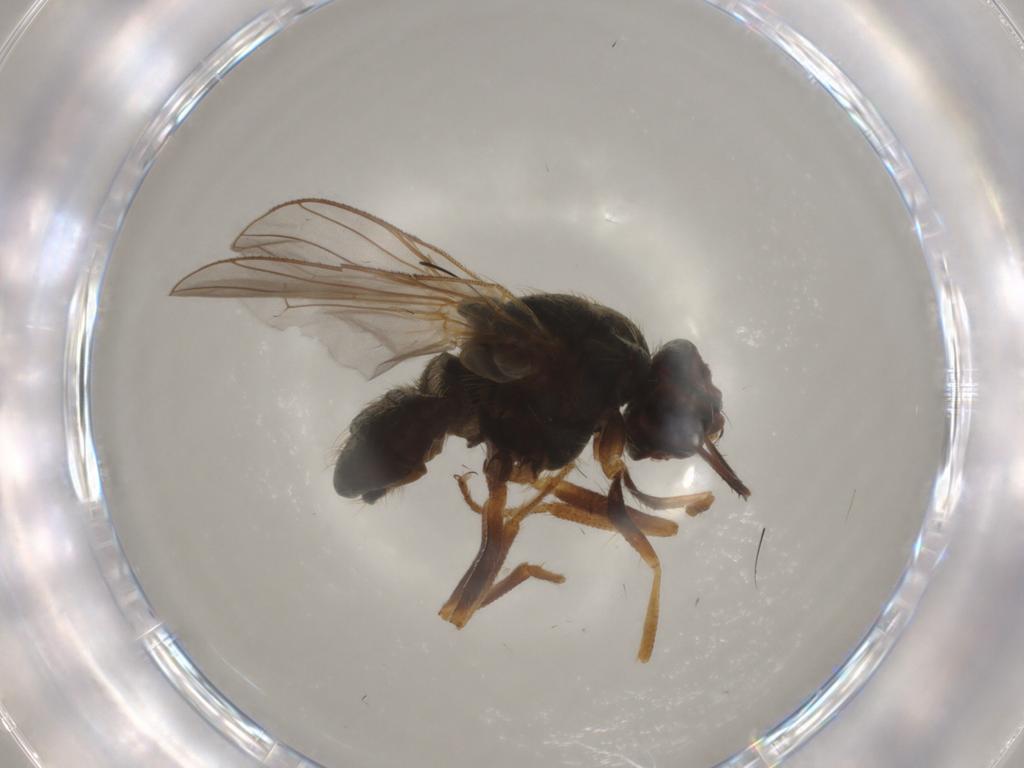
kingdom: Animalia
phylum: Arthropoda
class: Insecta
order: Diptera
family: Muscidae
